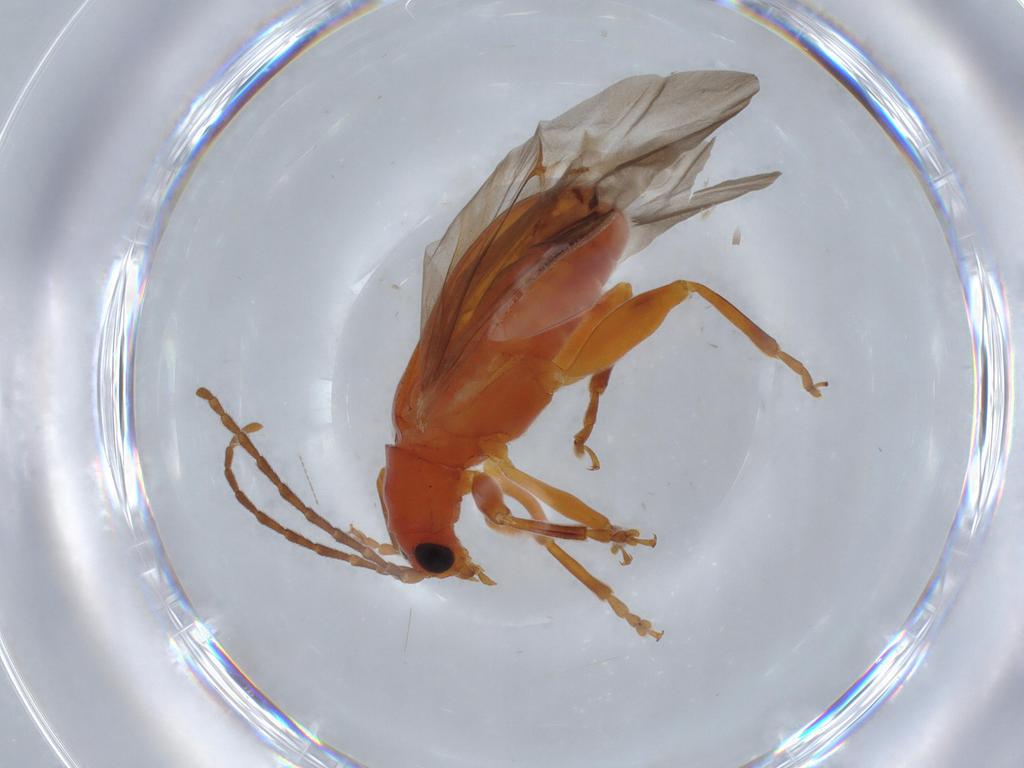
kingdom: Animalia
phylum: Arthropoda
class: Insecta
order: Coleoptera
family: Chrysomelidae
